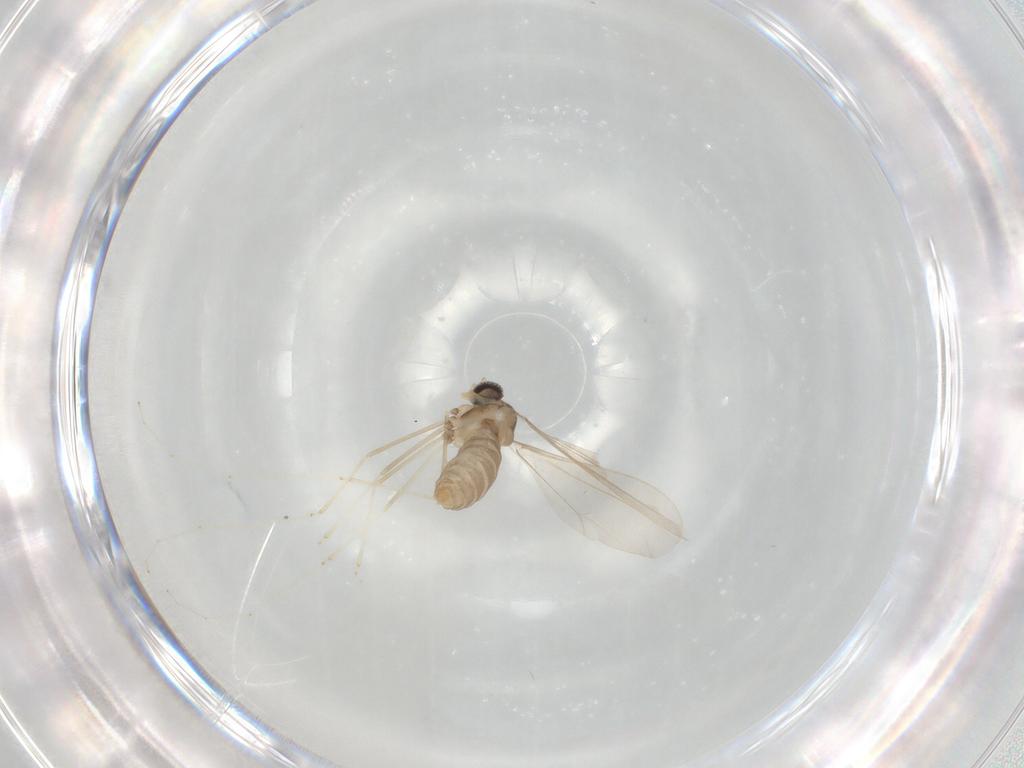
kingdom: Animalia
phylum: Arthropoda
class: Insecta
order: Diptera
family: Cecidomyiidae
